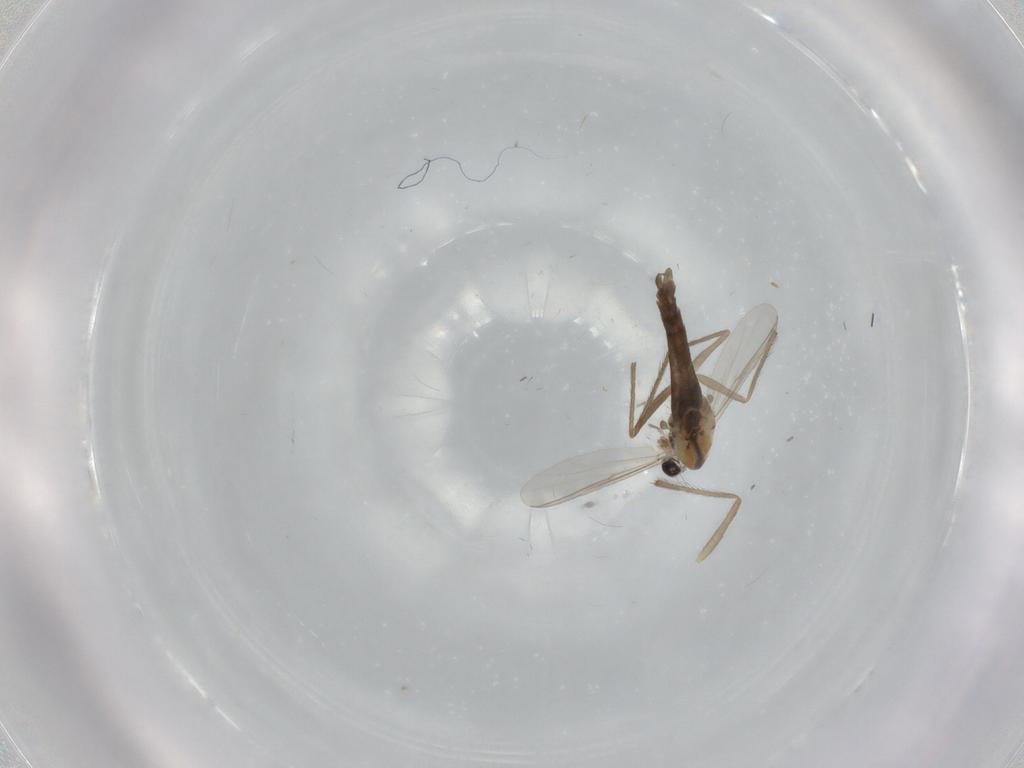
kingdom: Animalia
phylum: Arthropoda
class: Insecta
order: Diptera
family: Chironomidae
